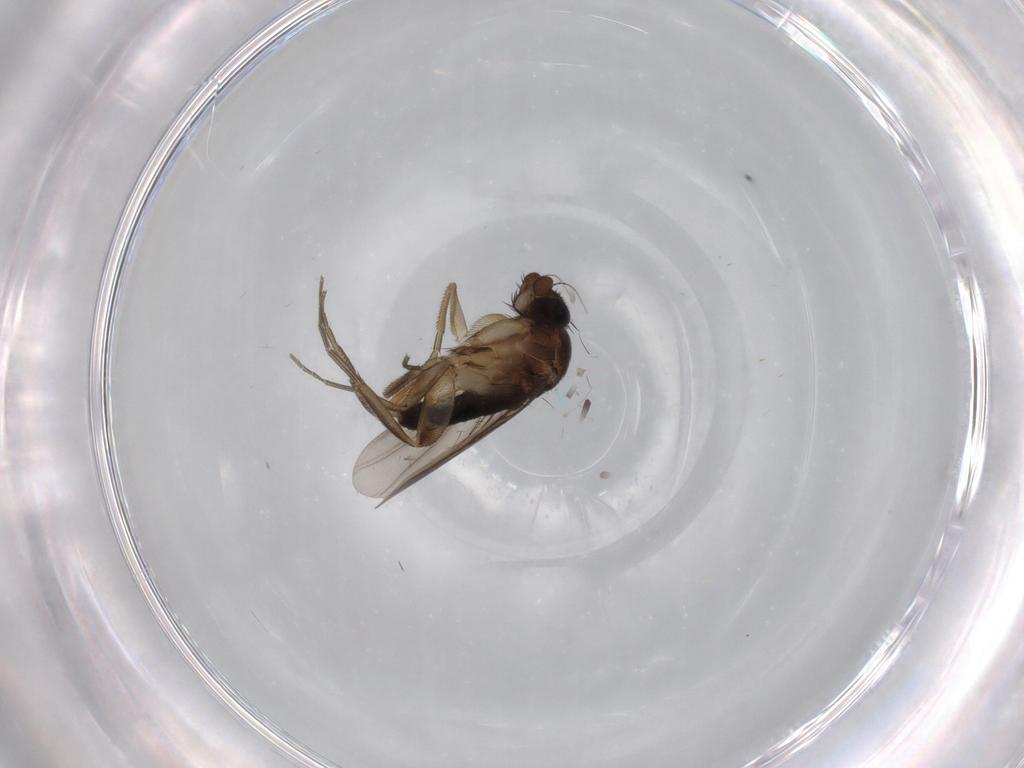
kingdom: Animalia
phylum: Arthropoda
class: Insecta
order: Diptera
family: Phoridae
